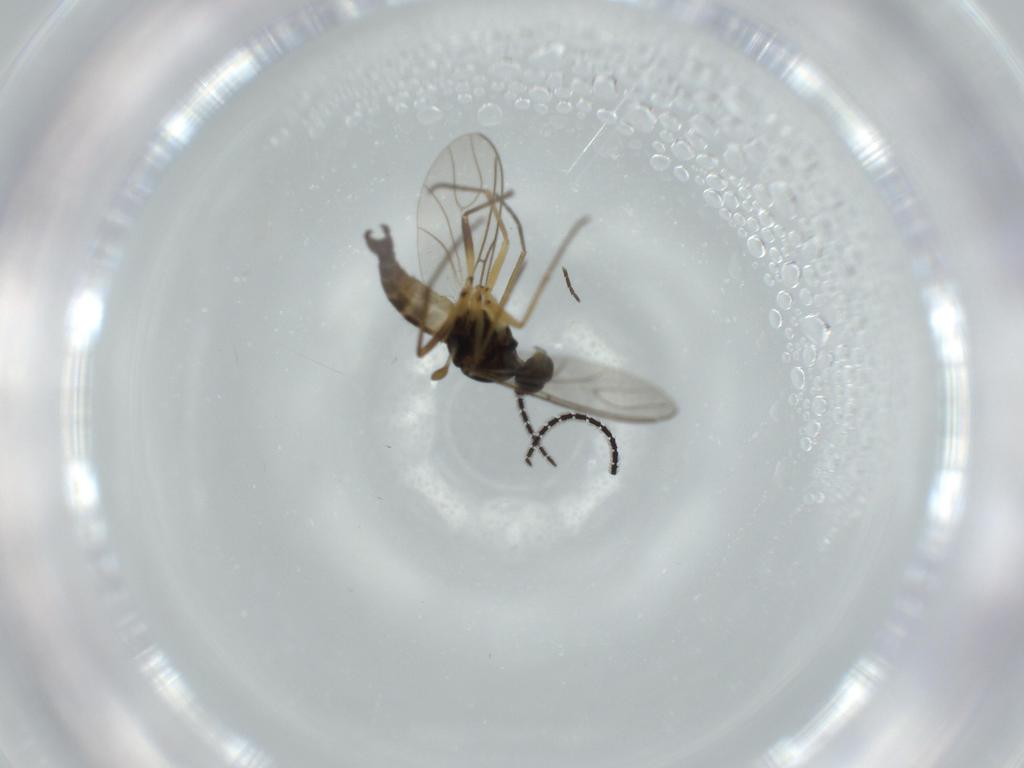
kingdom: Animalia
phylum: Arthropoda
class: Insecta
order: Diptera
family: Sciaridae
